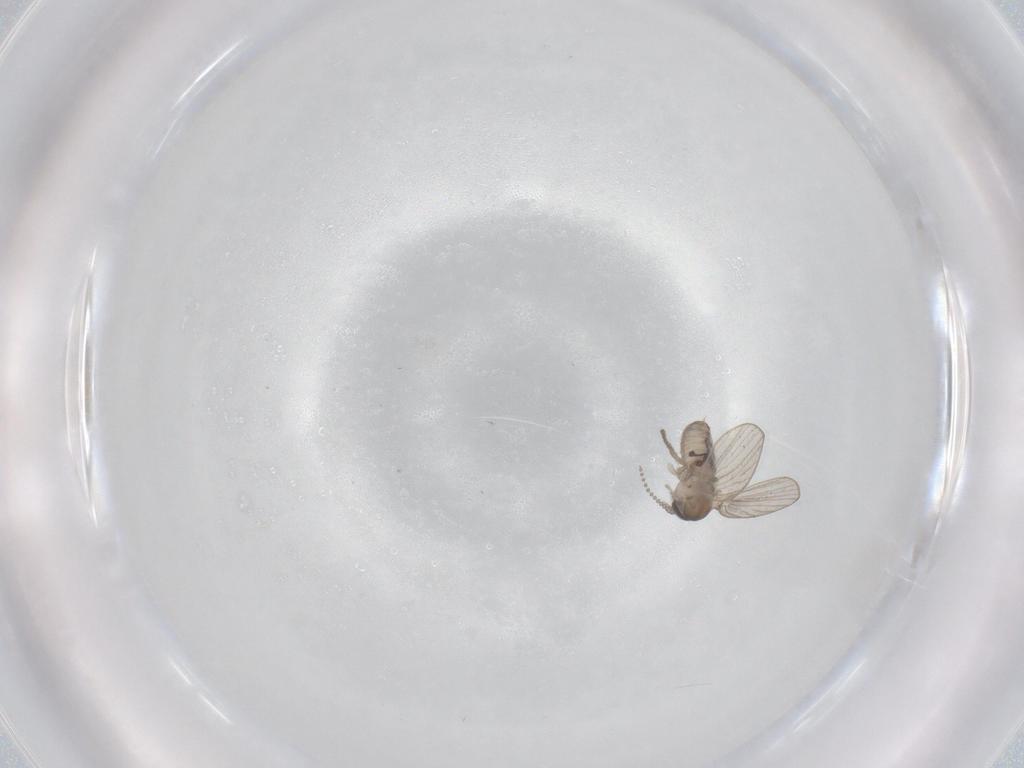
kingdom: Animalia
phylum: Arthropoda
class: Insecta
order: Diptera
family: Psychodidae
